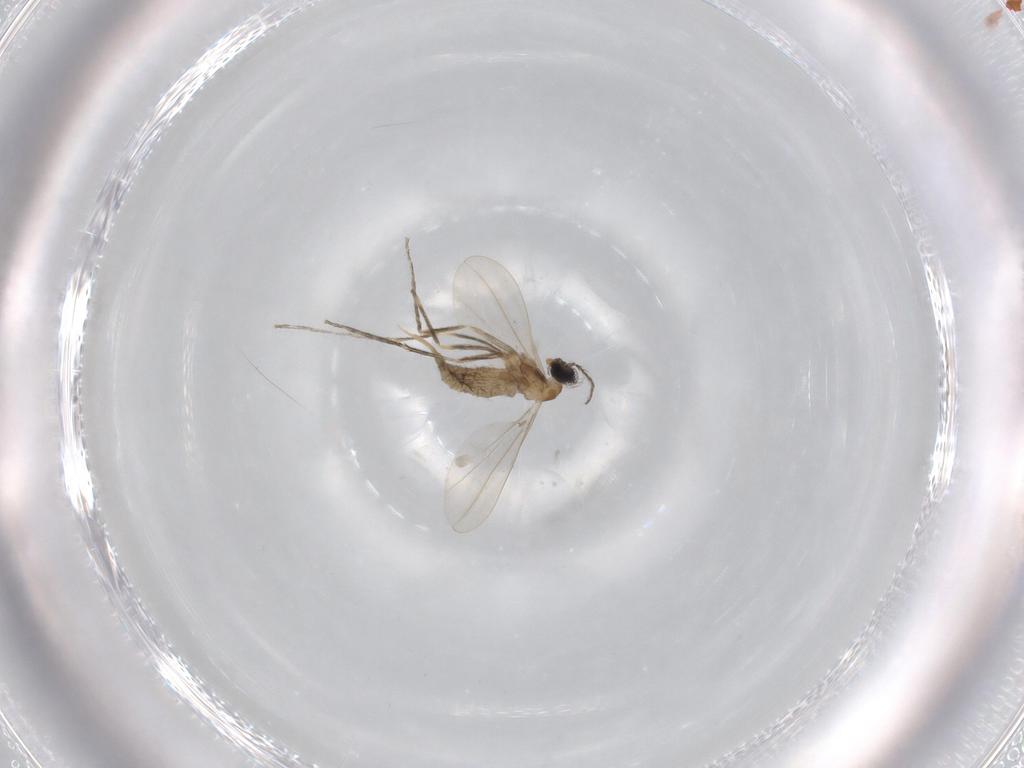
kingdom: Animalia
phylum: Arthropoda
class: Insecta
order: Diptera
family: Cecidomyiidae
